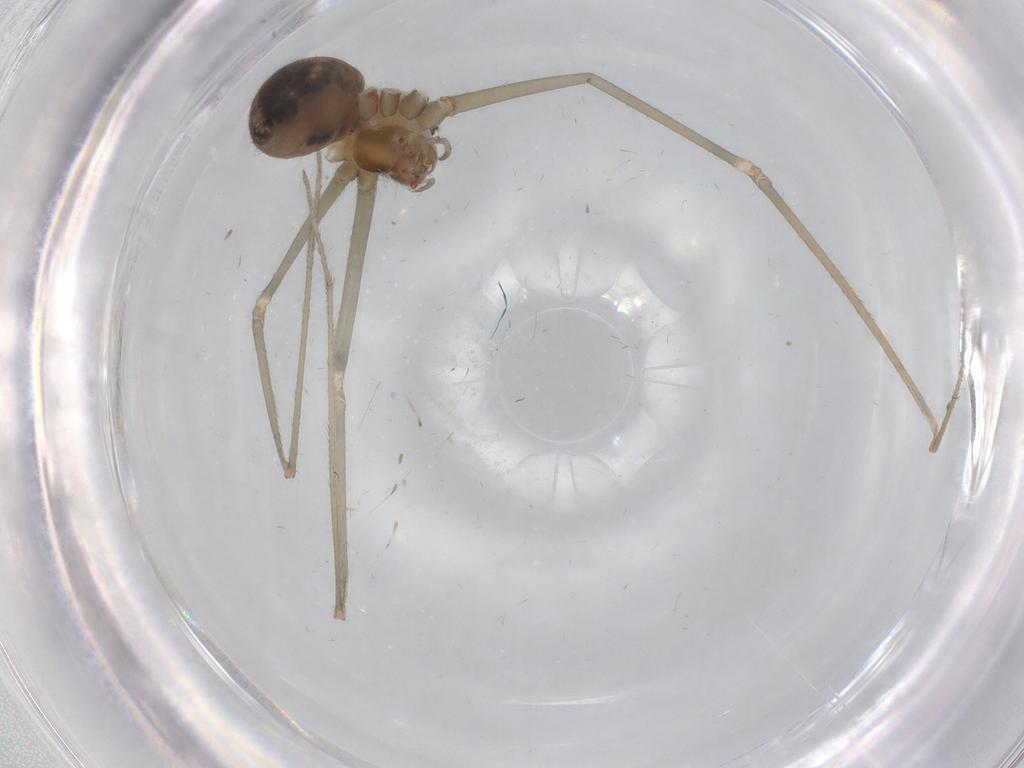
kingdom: Animalia
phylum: Arthropoda
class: Arachnida
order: Araneae
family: Pholcidae
